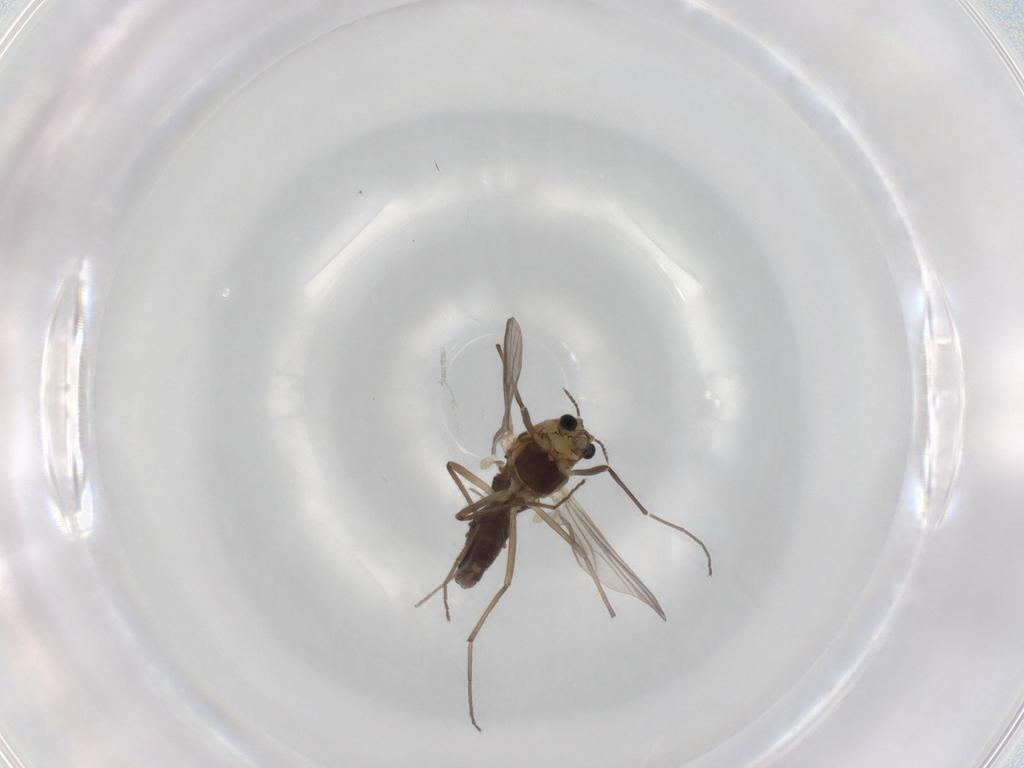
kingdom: Animalia
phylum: Arthropoda
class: Insecta
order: Diptera
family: Chironomidae
